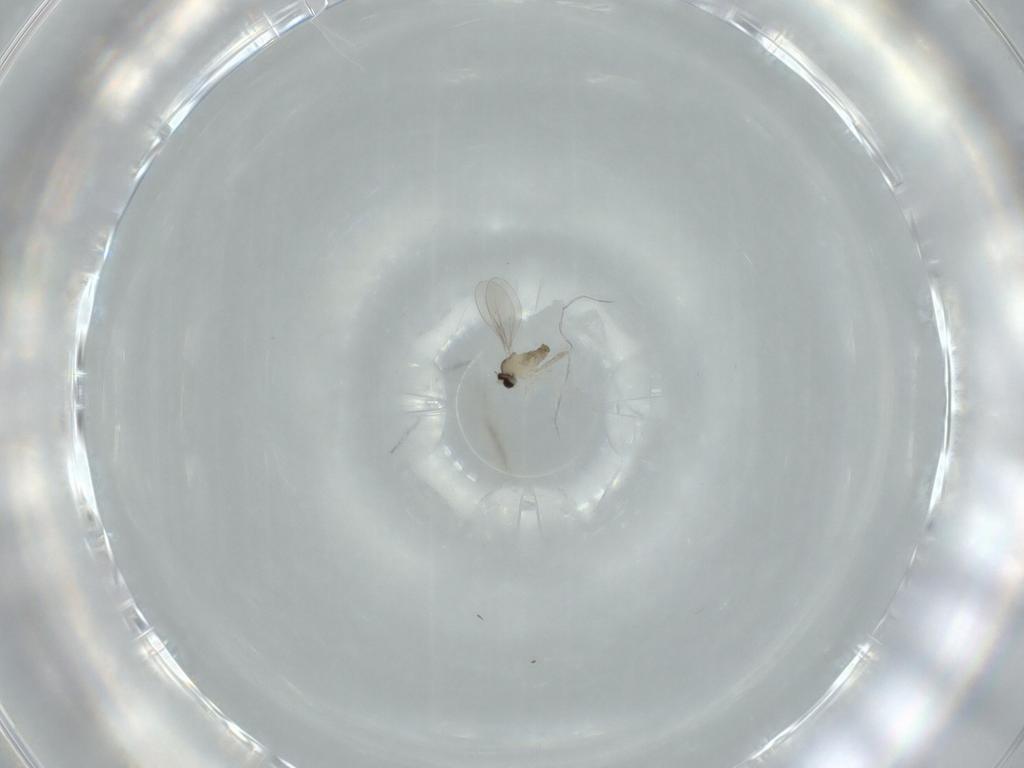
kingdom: Animalia
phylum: Arthropoda
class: Insecta
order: Diptera
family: Cecidomyiidae
